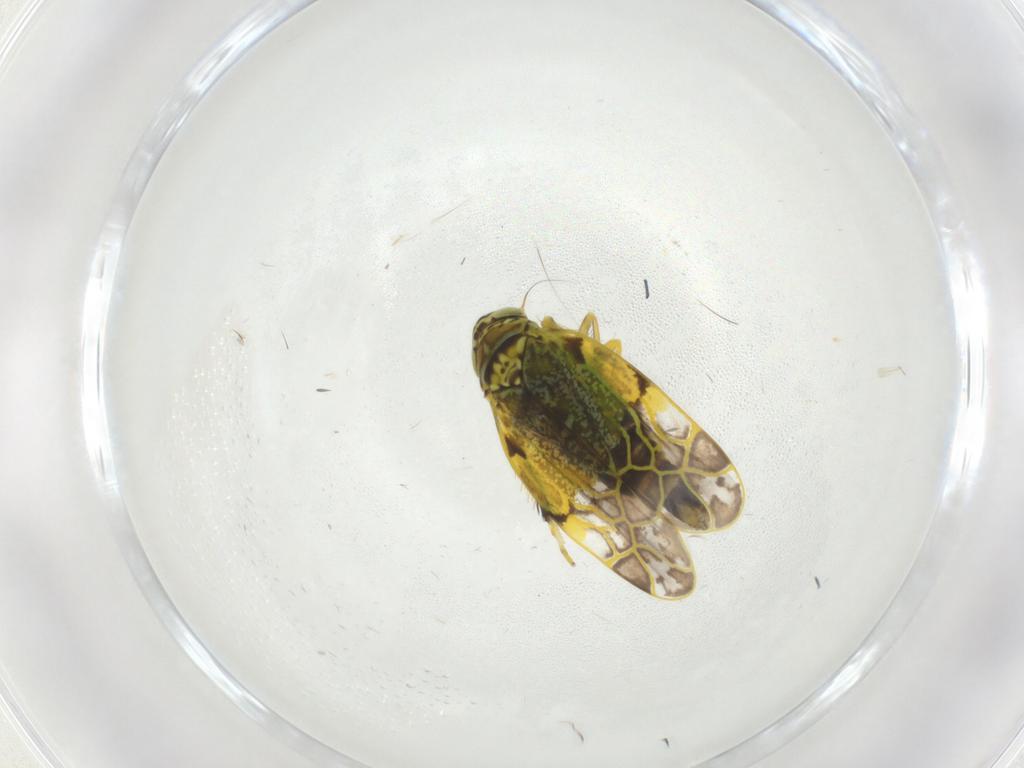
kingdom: Animalia
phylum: Arthropoda
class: Insecta
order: Hemiptera
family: Cicadellidae
